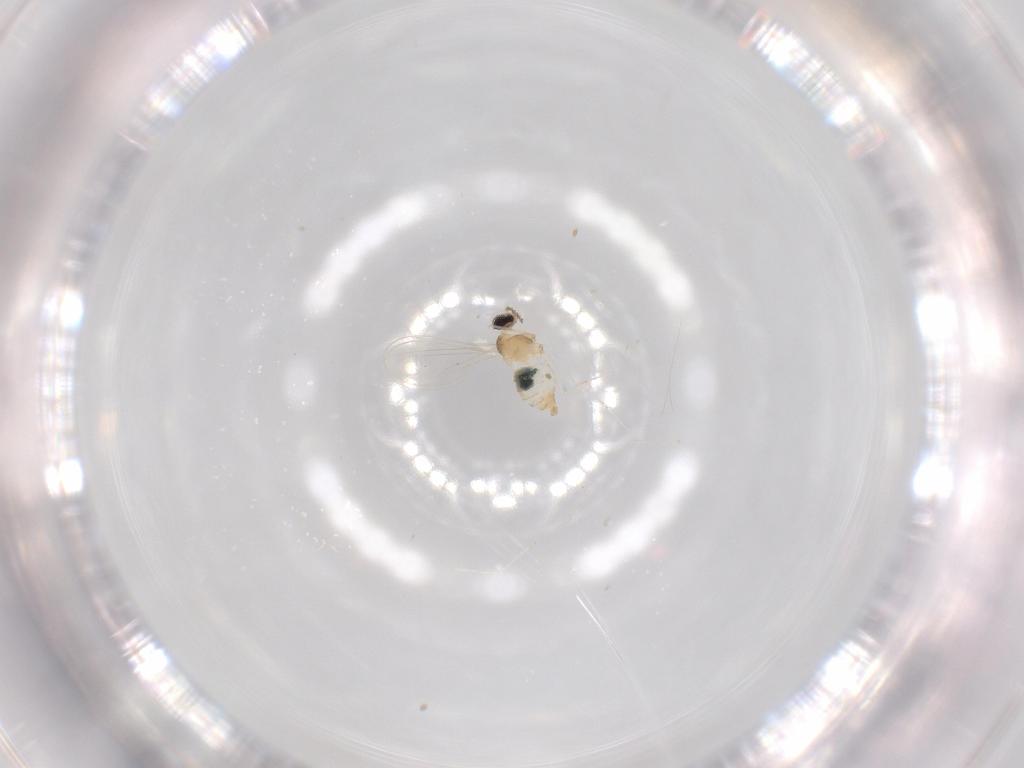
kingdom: Animalia
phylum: Arthropoda
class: Insecta
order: Diptera
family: Cecidomyiidae
